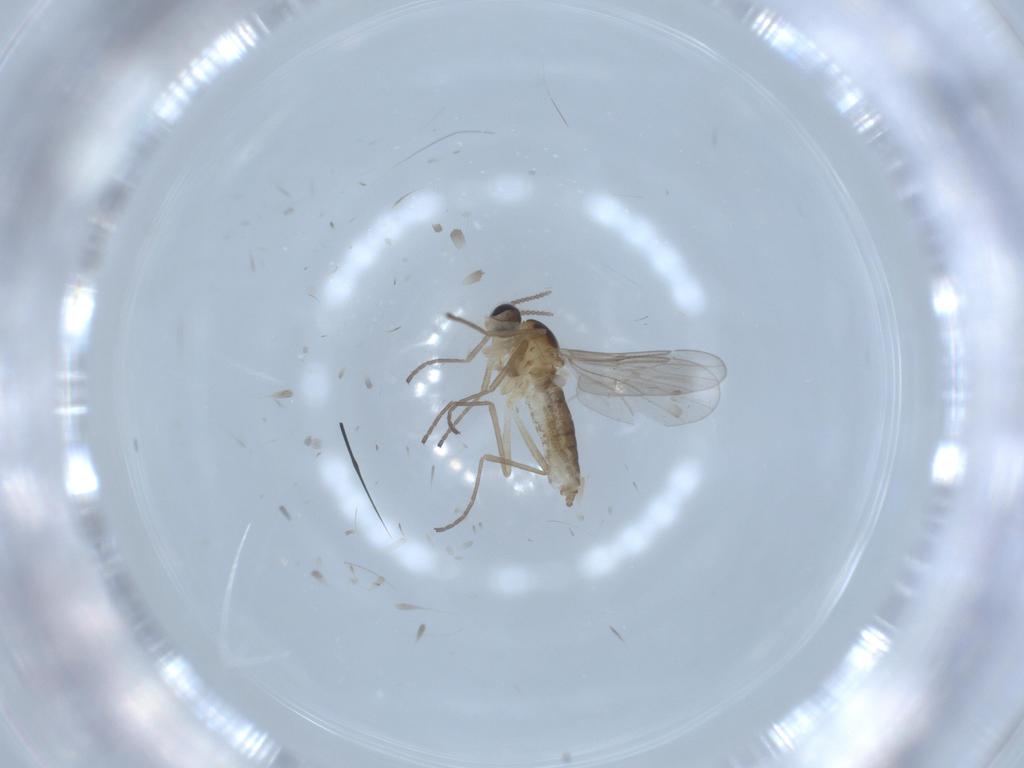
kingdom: Animalia
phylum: Arthropoda
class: Insecta
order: Diptera
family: Cecidomyiidae
